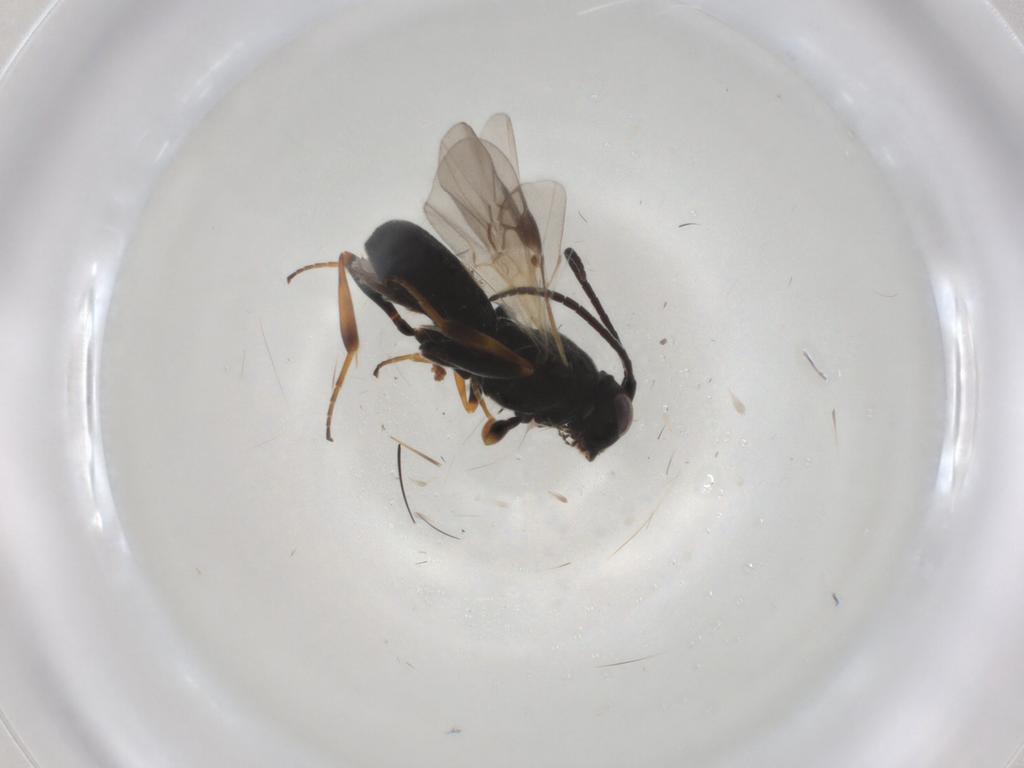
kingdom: Animalia
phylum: Arthropoda
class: Insecta
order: Hymenoptera
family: Braconidae
